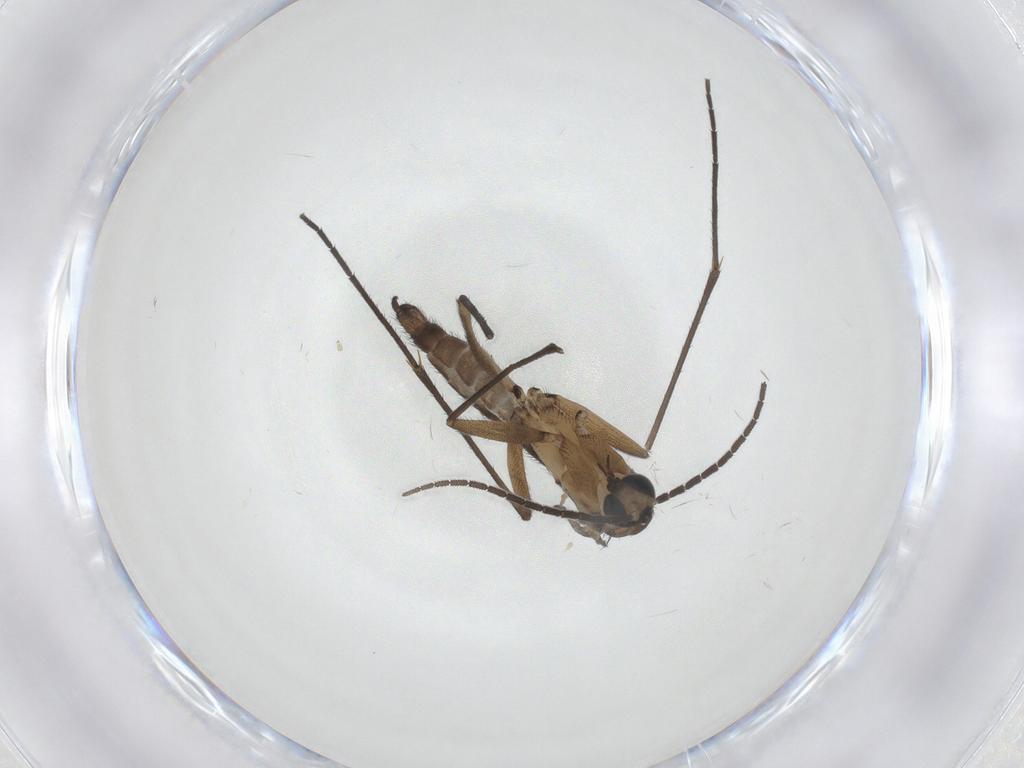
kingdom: Animalia
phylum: Arthropoda
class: Insecta
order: Diptera
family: Sciaridae
